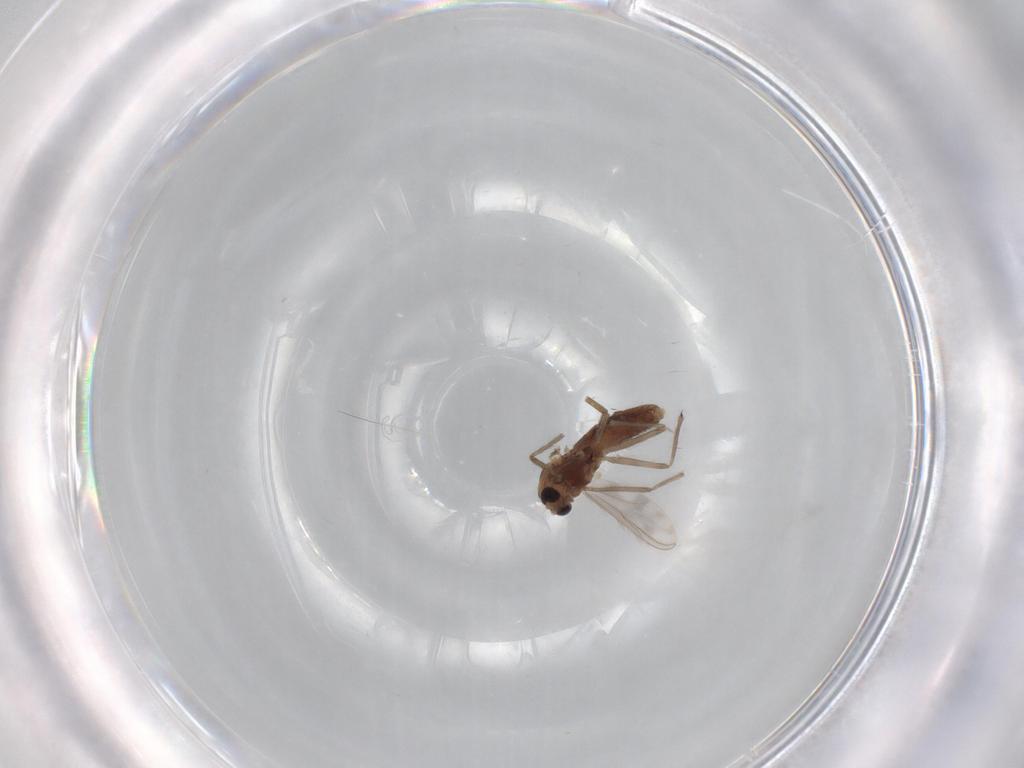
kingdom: Animalia
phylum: Arthropoda
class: Insecta
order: Diptera
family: Chironomidae
